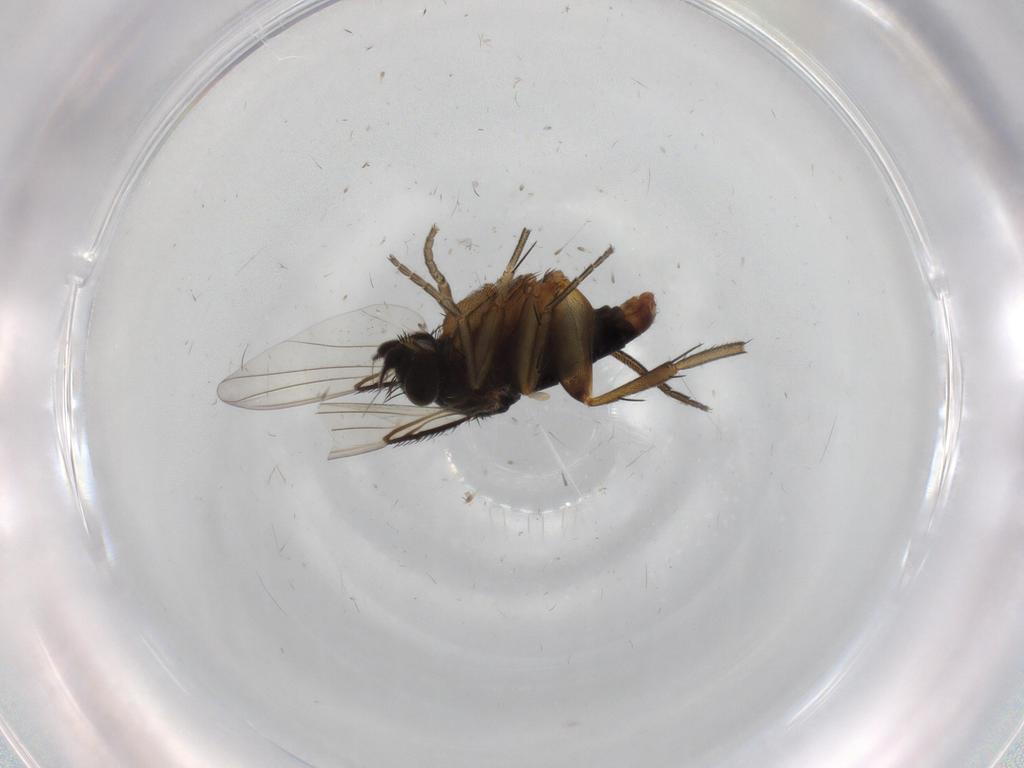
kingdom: Animalia
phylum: Arthropoda
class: Insecta
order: Diptera
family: Phoridae
